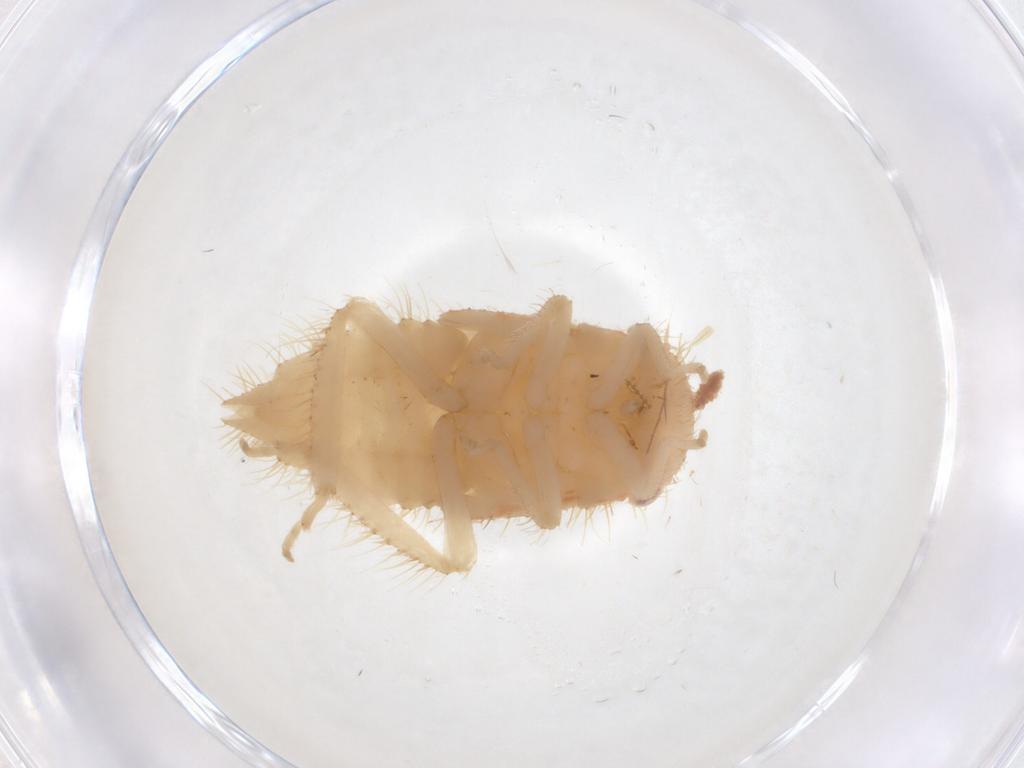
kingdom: Animalia
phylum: Arthropoda
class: Insecta
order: Hemiptera
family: Cicadellidae
